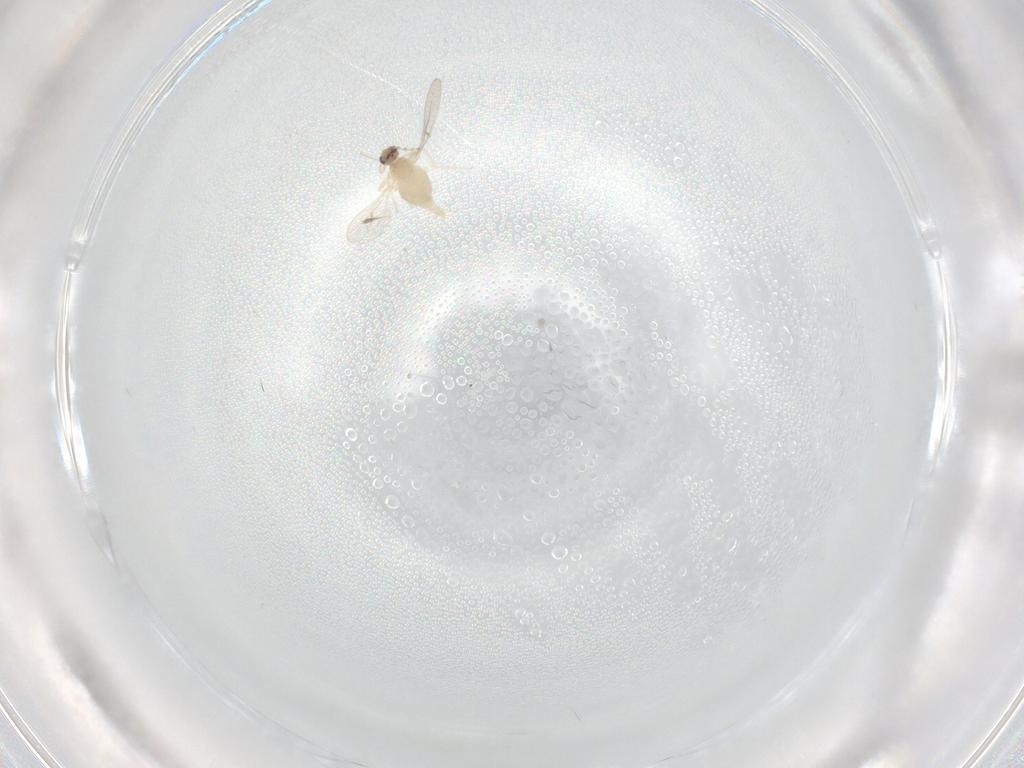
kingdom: Animalia
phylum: Arthropoda
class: Insecta
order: Diptera
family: Cecidomyiidae
